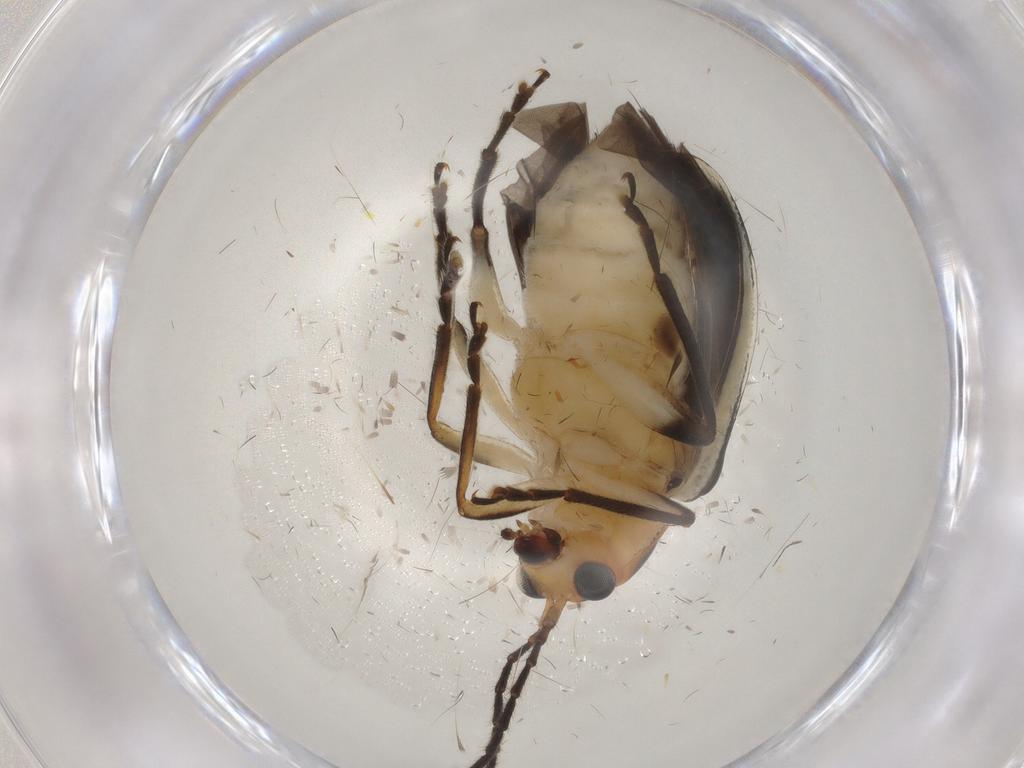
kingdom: Animalia
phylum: Arthropoda
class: Insecta
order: Coleoptera
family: Chrysomelidae
